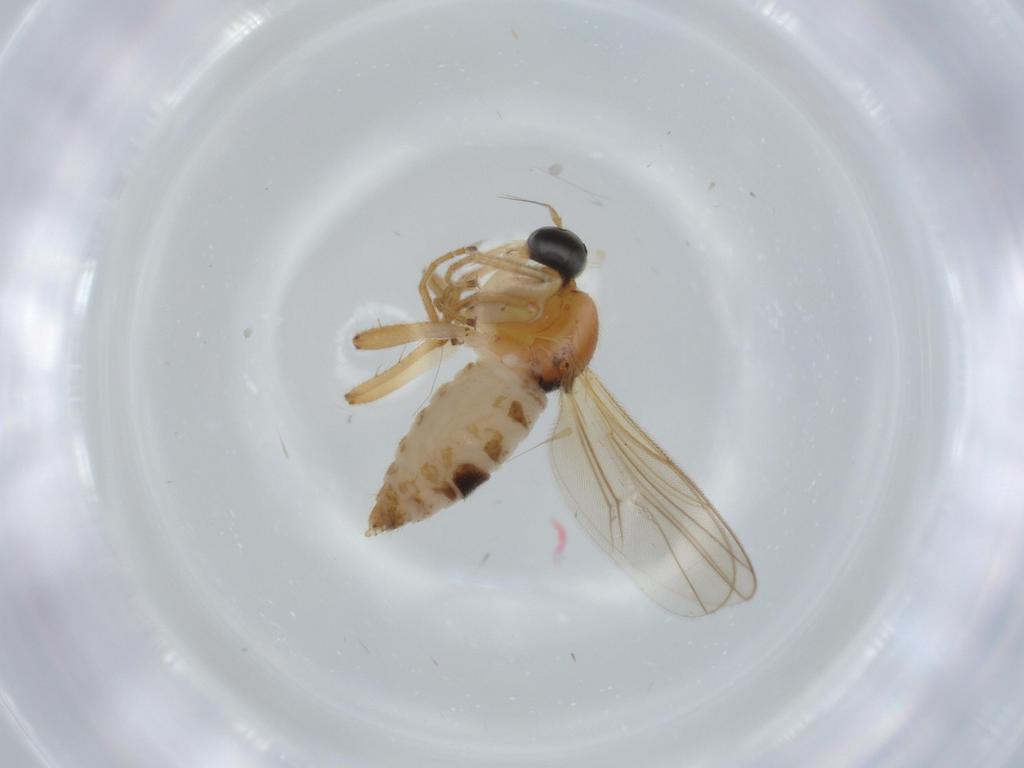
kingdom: Animalia
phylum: Arthropoda
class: Insecta
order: Diptera
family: Hybotidae
